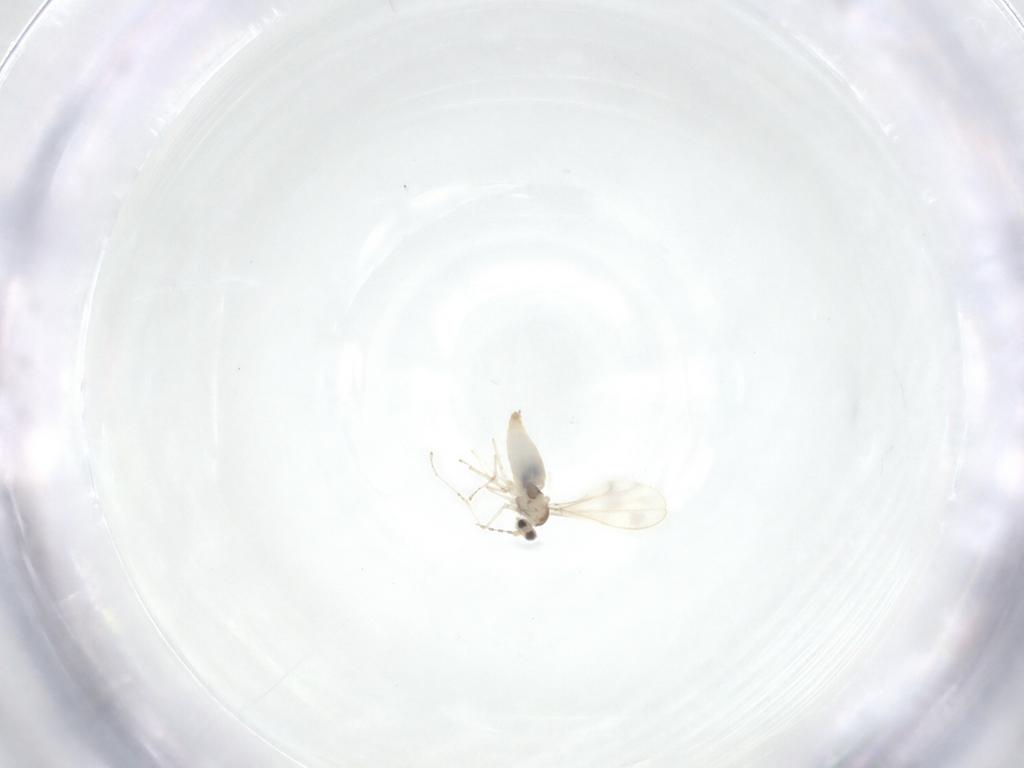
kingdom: Animalia
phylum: Arthropoda
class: Insecta
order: Diptera
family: Cecidomyiidae
